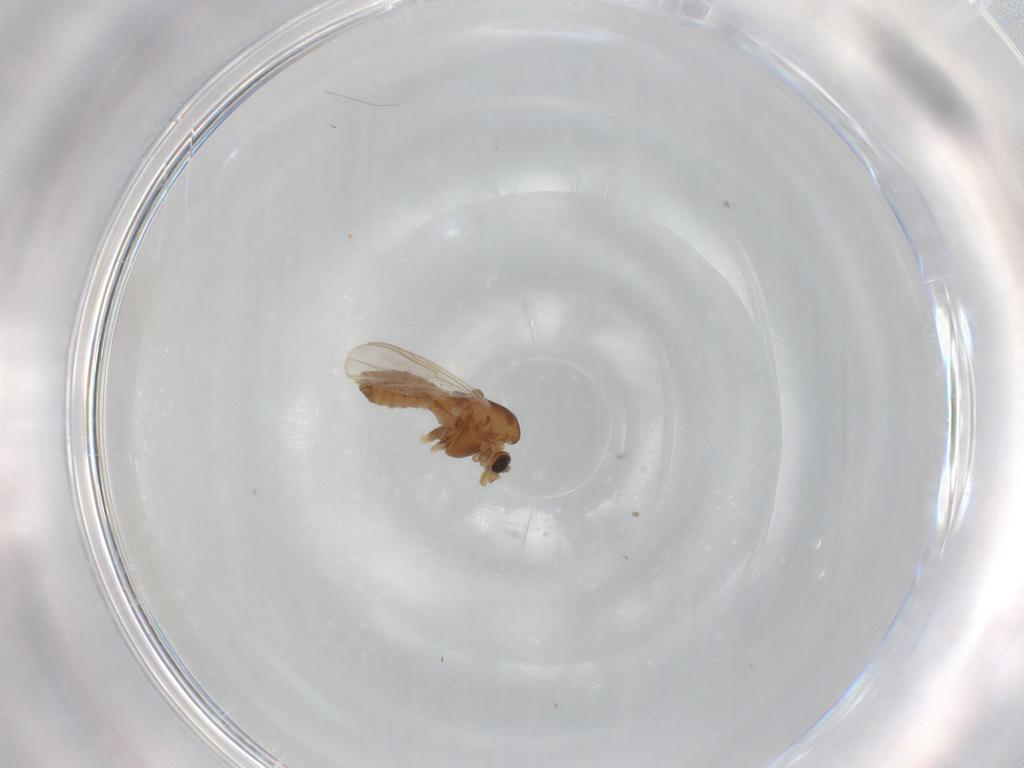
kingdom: Animalia
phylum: Arthropoda
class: Insecta
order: Diptera
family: Chironomidae
